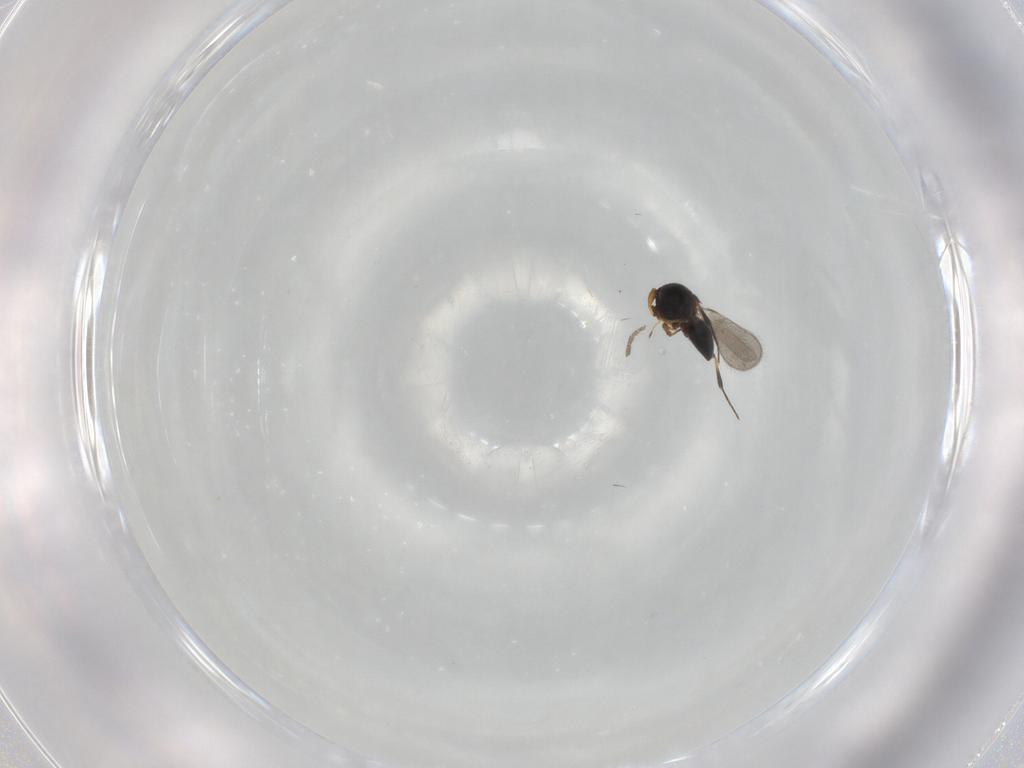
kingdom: Animalia
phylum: Arthropoda
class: Insecta
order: Hymenoptera
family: Platygastridae
